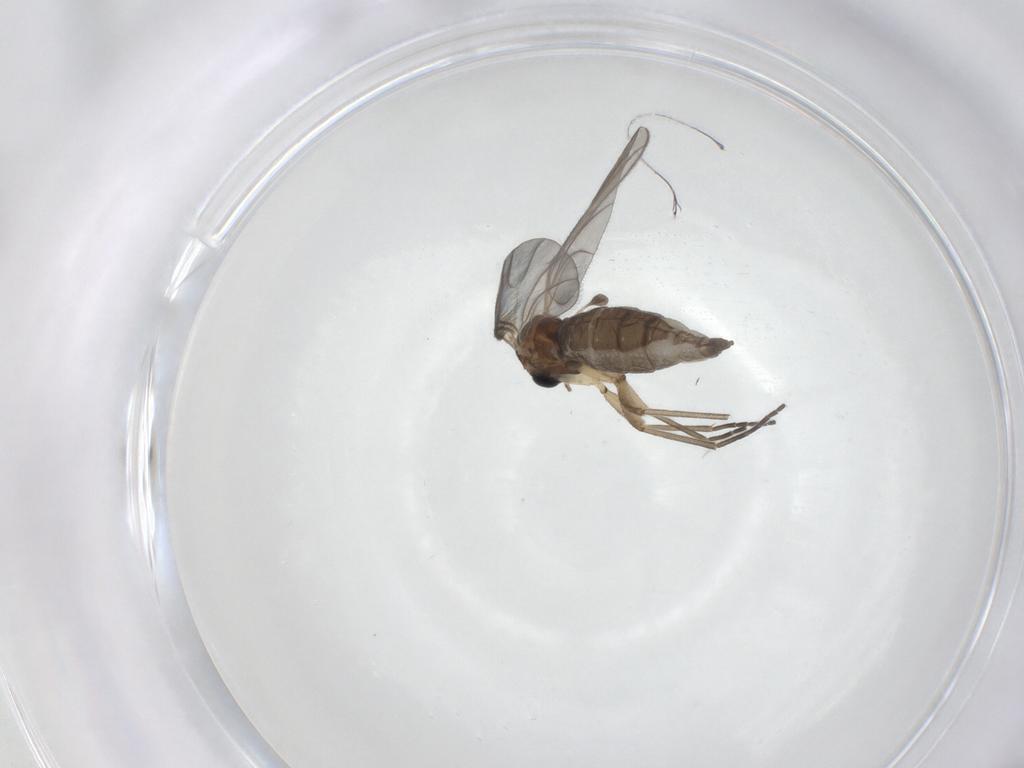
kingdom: Animalia
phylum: Arthropoda
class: Insecta
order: Diptera
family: Sciaridae
